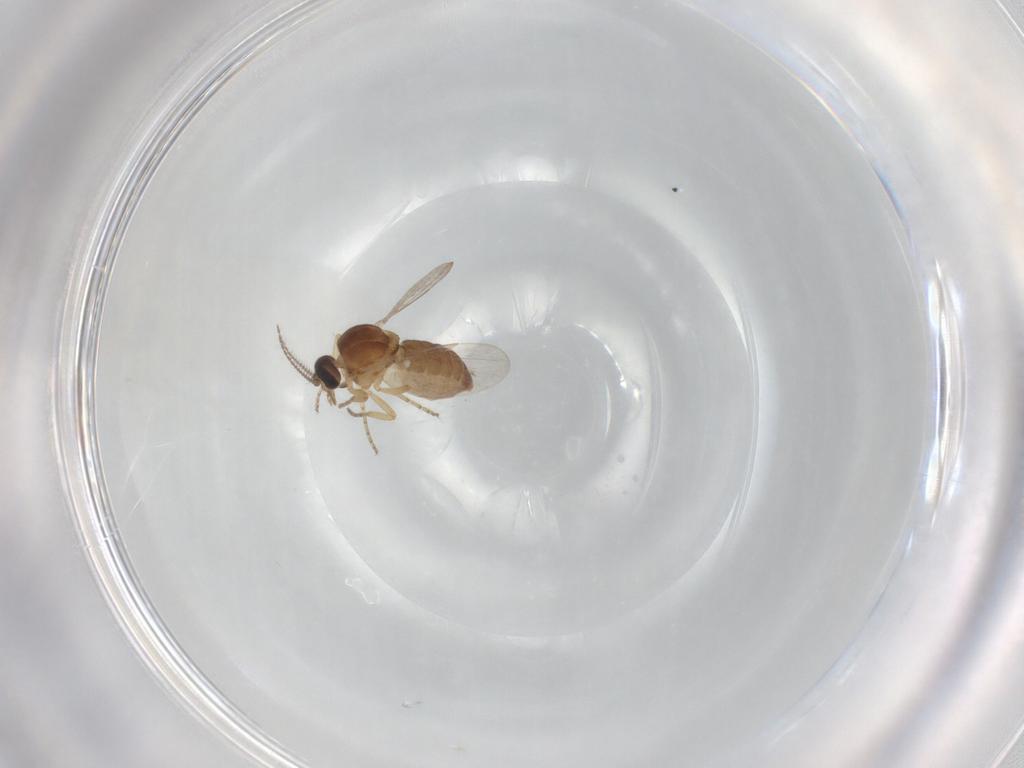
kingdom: Animalia
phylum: Arthropoda
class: Insecta
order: Diptera
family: Ceratopogonidae
